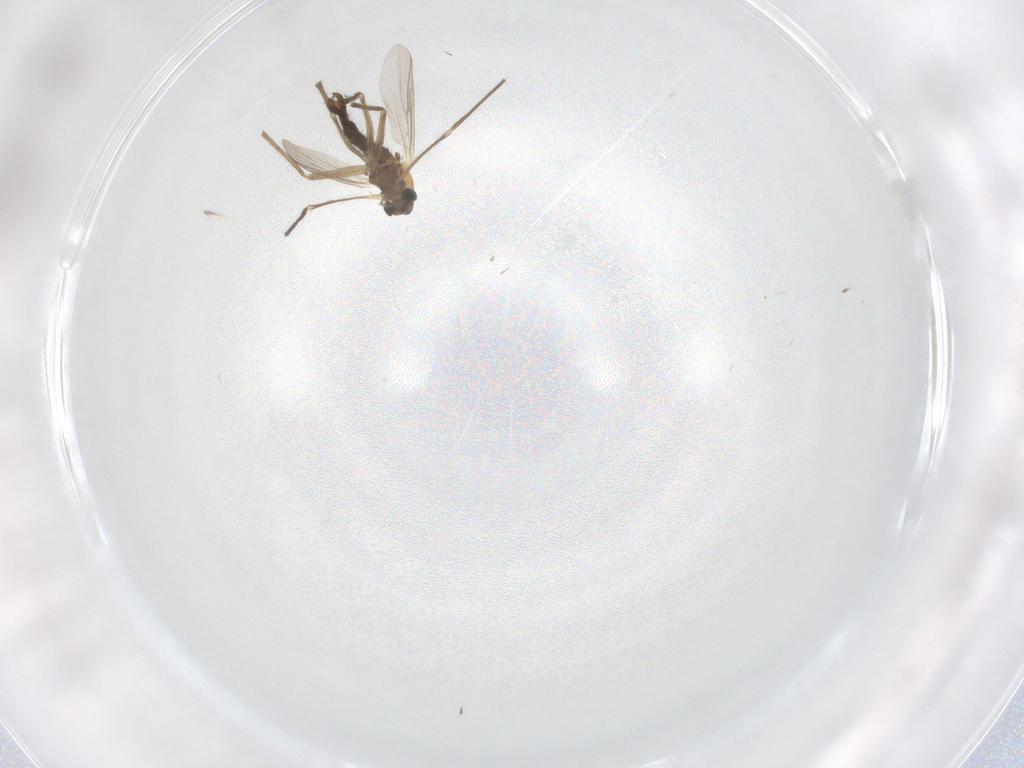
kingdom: Animalia
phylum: Arthropoda
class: Insecta
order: Diptera
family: Chironomidae
